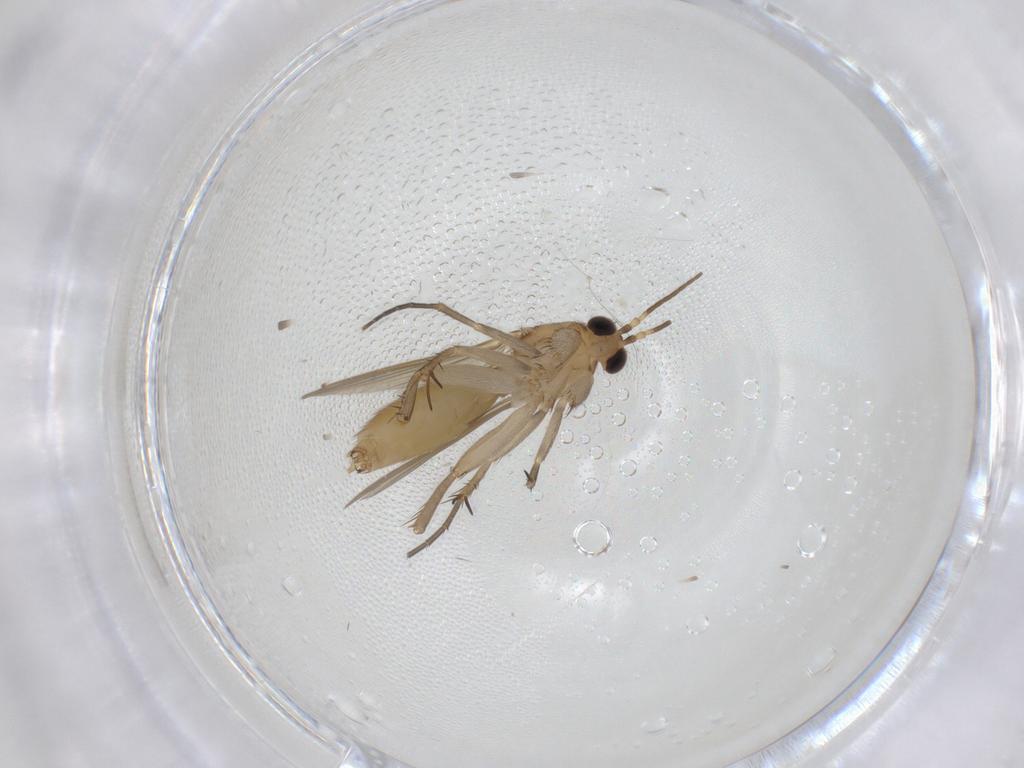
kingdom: Animalia
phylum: Arthropoda
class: Insecta
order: Diptera
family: Mycetophilidae
